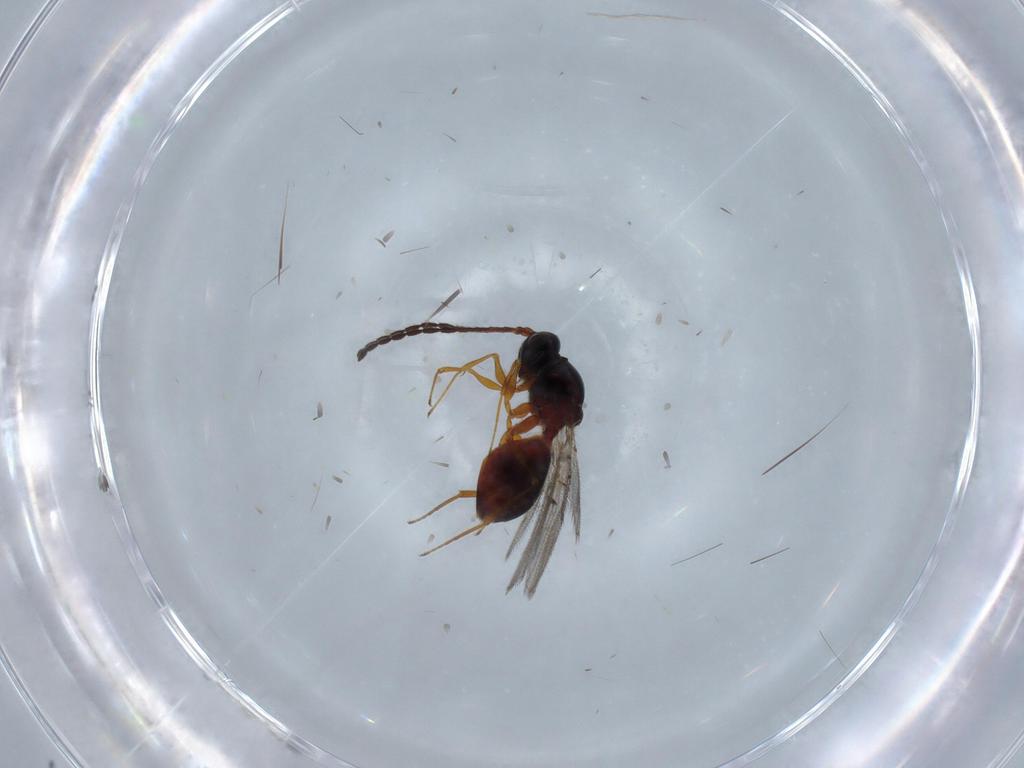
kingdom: Animalia
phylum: Arthropoda
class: Insecta
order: Hymenoptera
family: Figitidae
